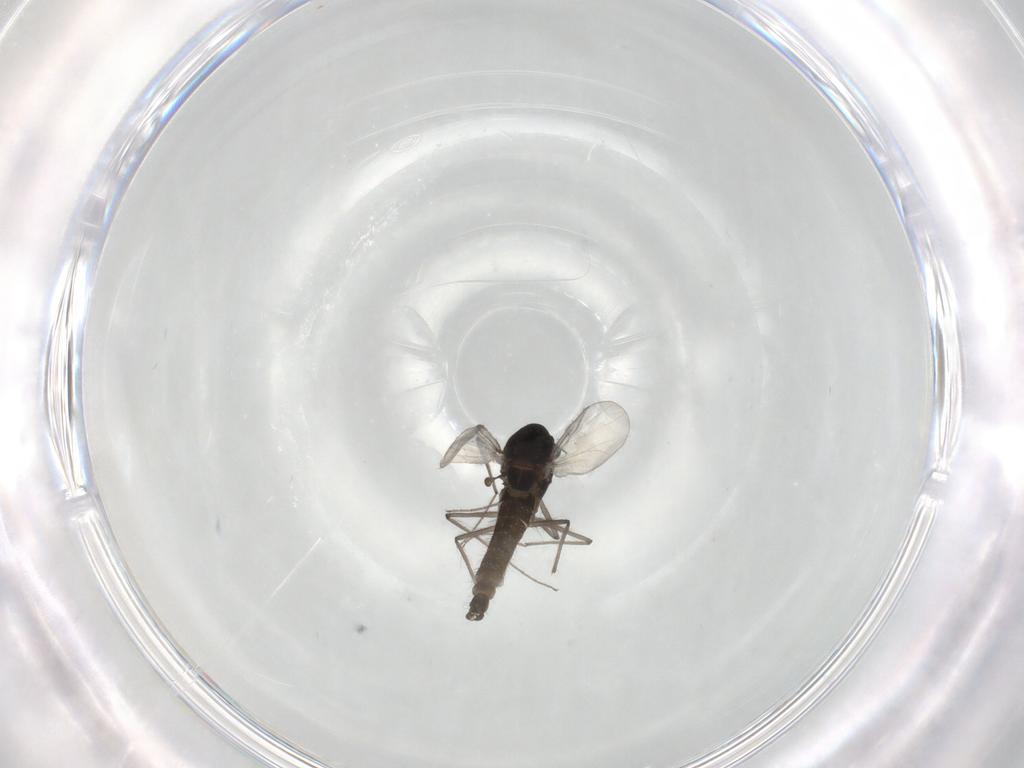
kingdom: Animalia
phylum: Arthropoda
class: Insecta
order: Diptera
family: Chironomidae
